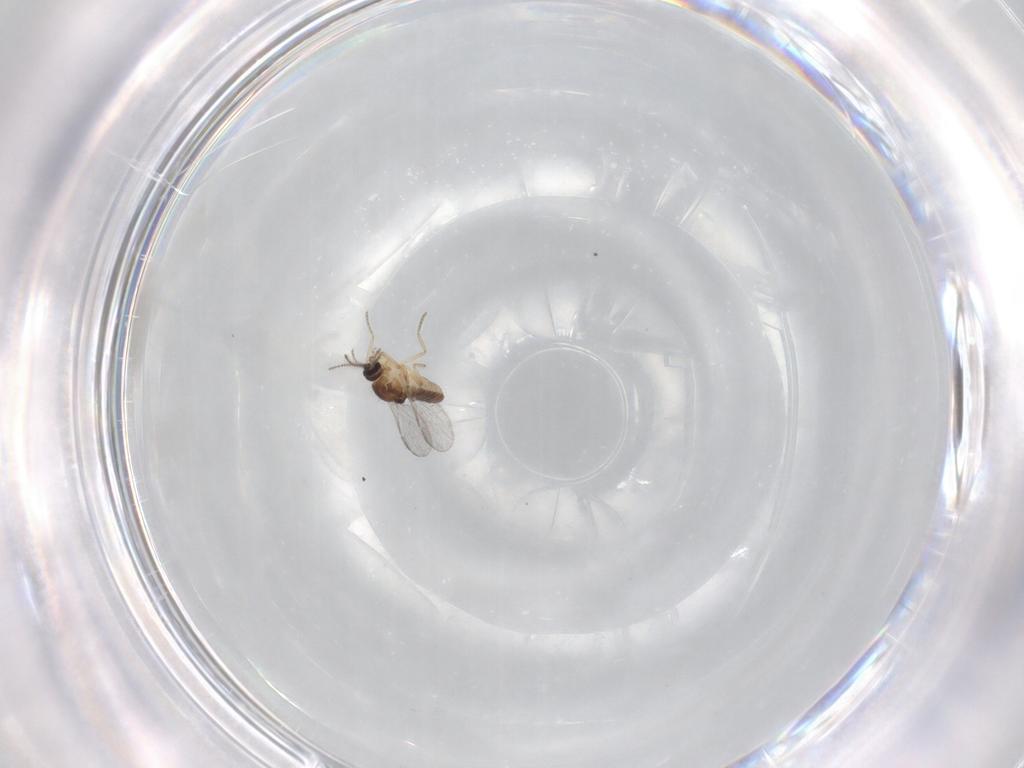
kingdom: Animalia
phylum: Arthropoda
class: Insecta
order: Diptera
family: Ceratopogonidae
